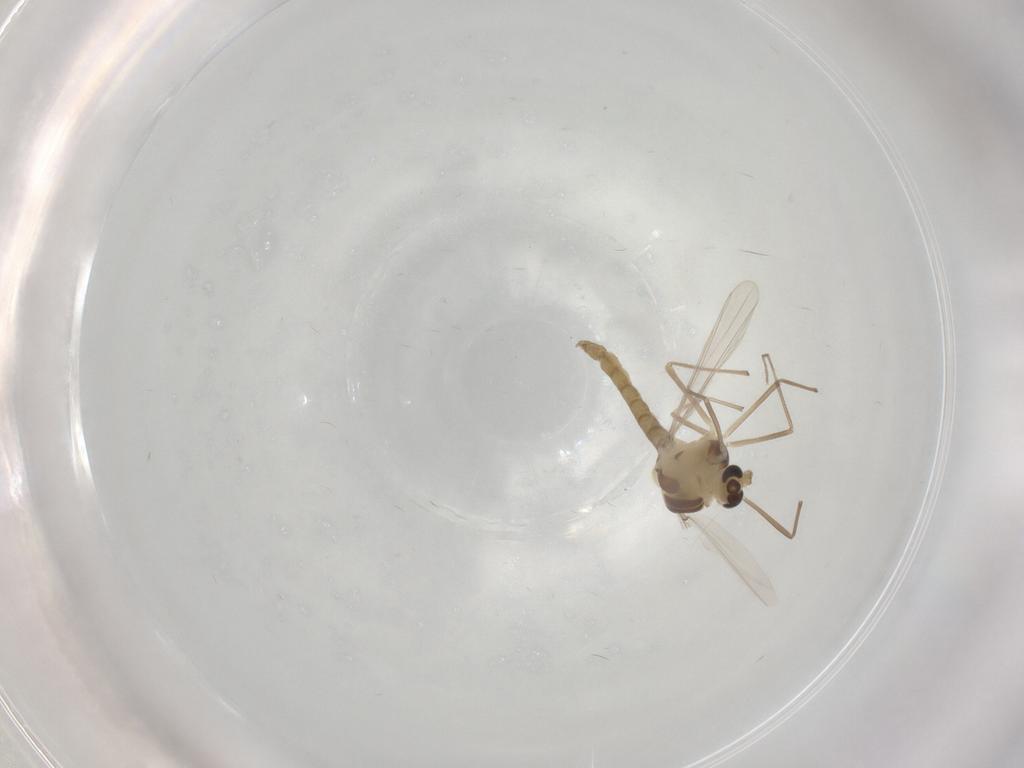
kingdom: Animalia
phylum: Arthropoda
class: Insecta
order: Diptera
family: Chironomidae
